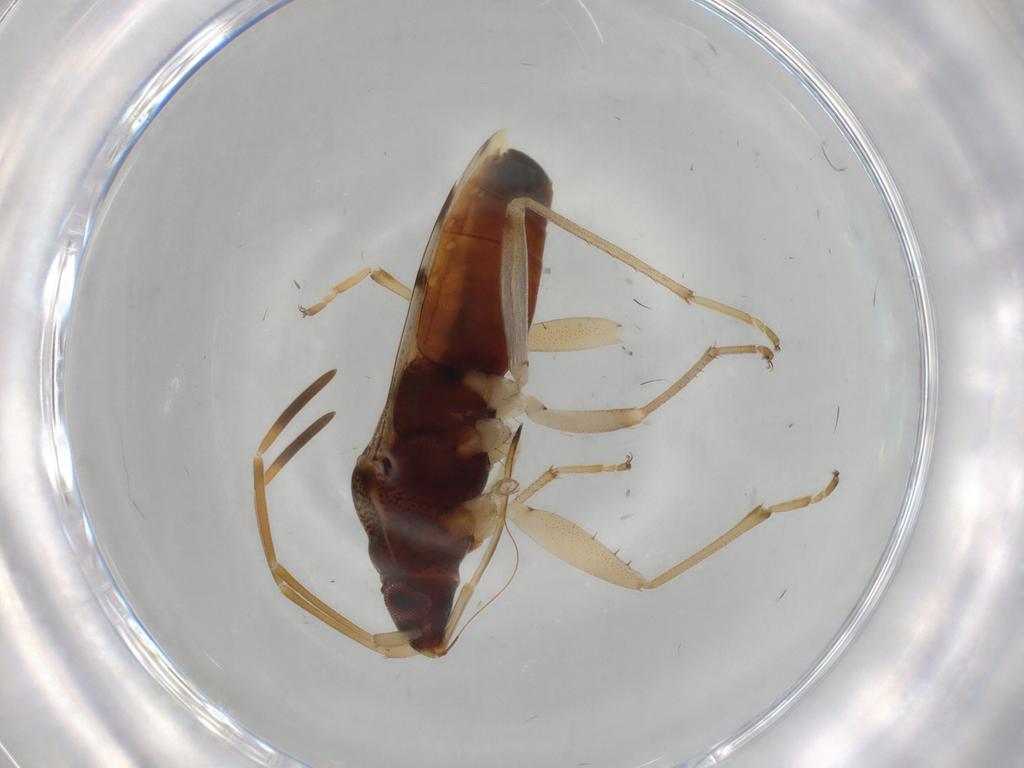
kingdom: Animalia
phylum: Arthropoda
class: Insecta
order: Hemiptera
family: Rhyparochromidae
